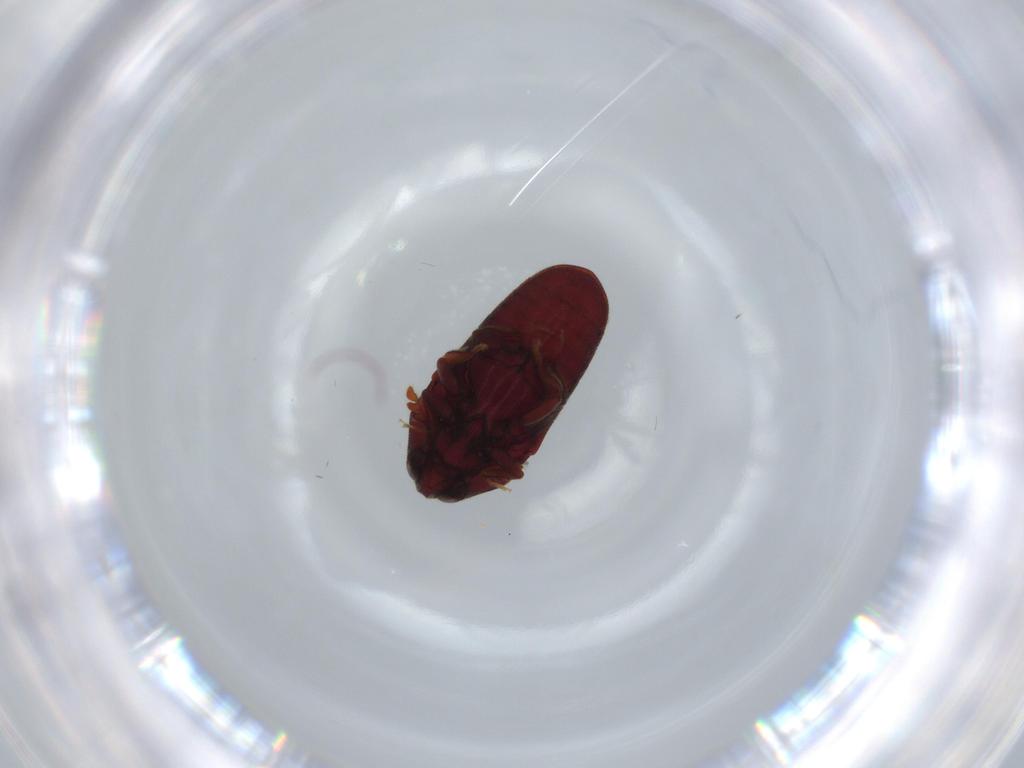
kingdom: Animalia
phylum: Arthropoda
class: Insecta
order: Coleoptera
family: Throscidae
